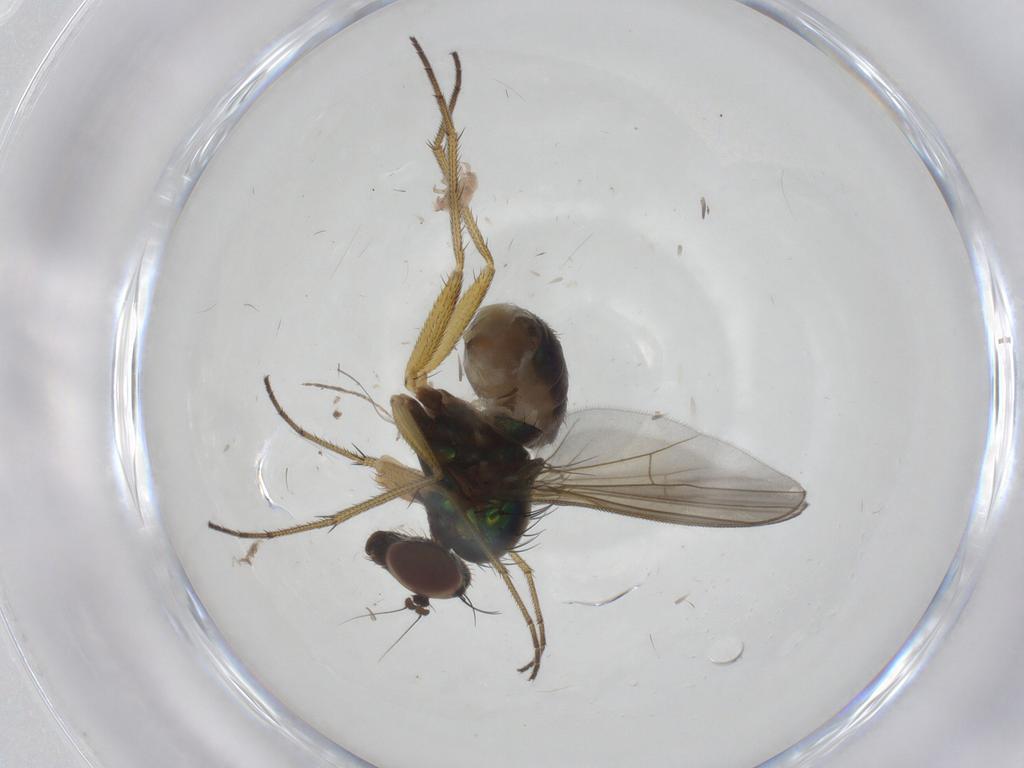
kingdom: Animalia
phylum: Arthropoda
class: Insecta
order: Diptera
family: Dolichopodidae
